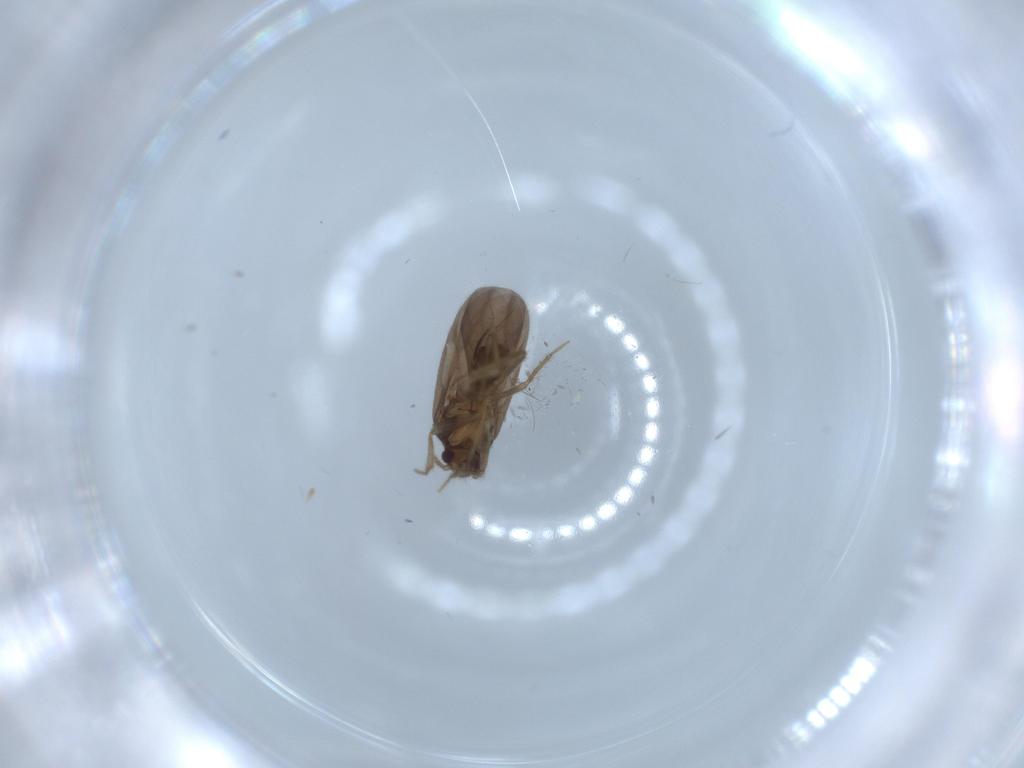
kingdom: Animalia
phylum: Arthropoda
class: Insecta
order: Hemiptera
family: Ceratocombidae
